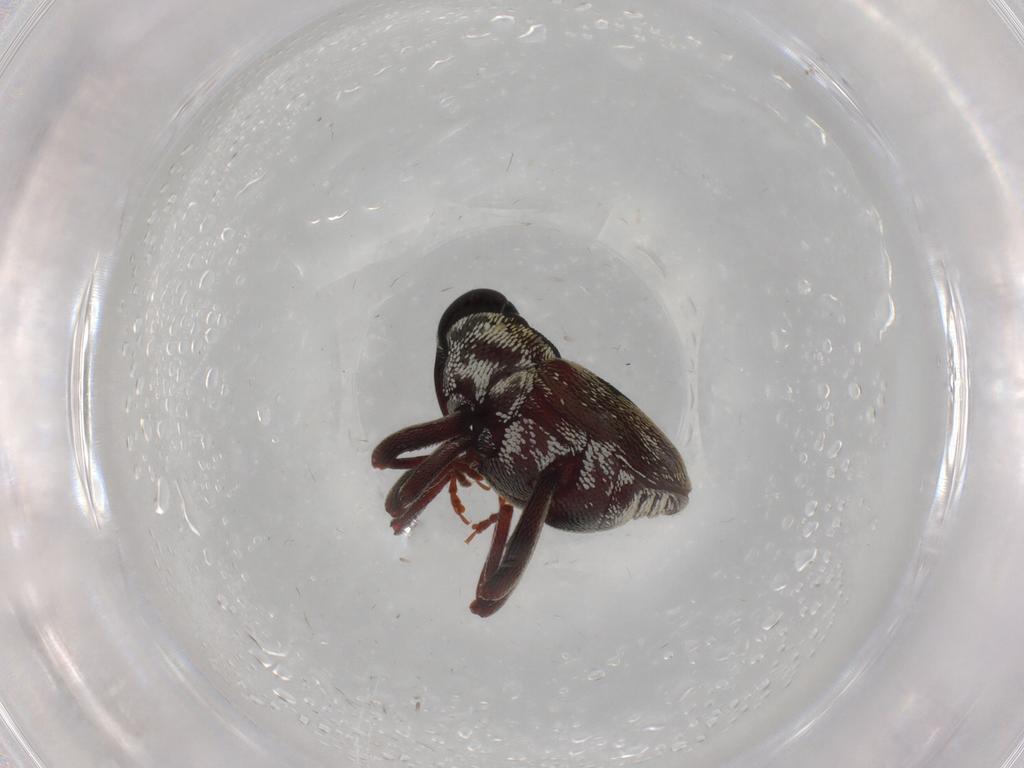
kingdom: Animalia
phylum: Arthropoda
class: Insecta
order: Coleoptera
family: Curculionidae
